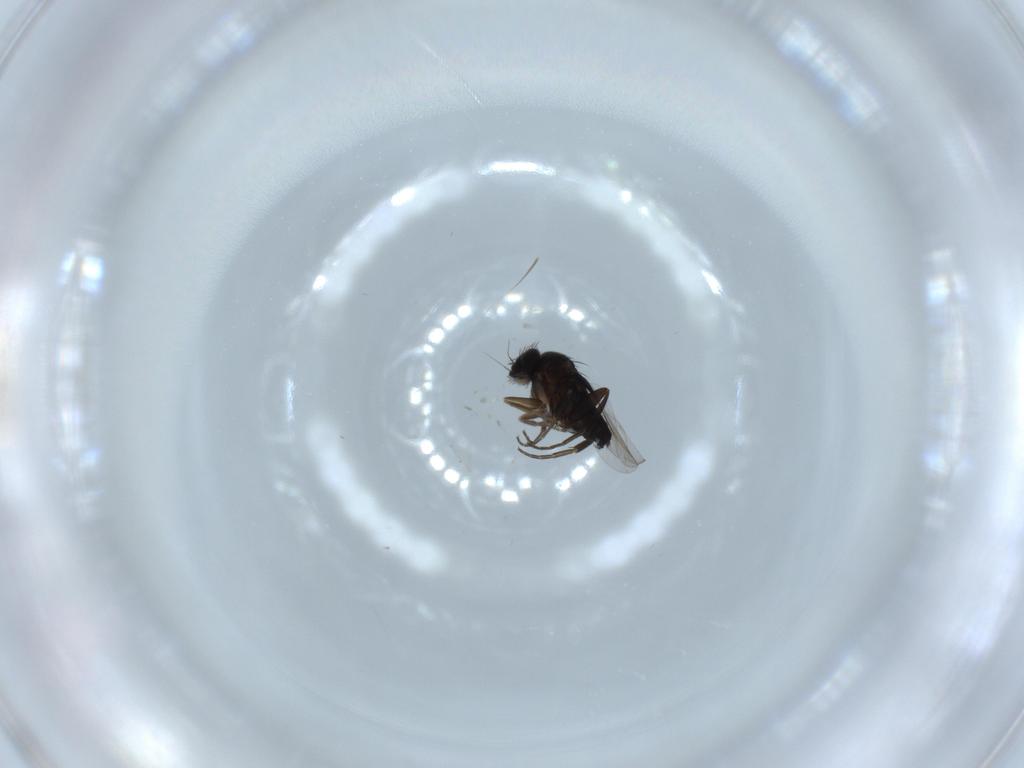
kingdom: Animalia
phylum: Arthropoda
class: Insecta
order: Diptera
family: Phoridae
